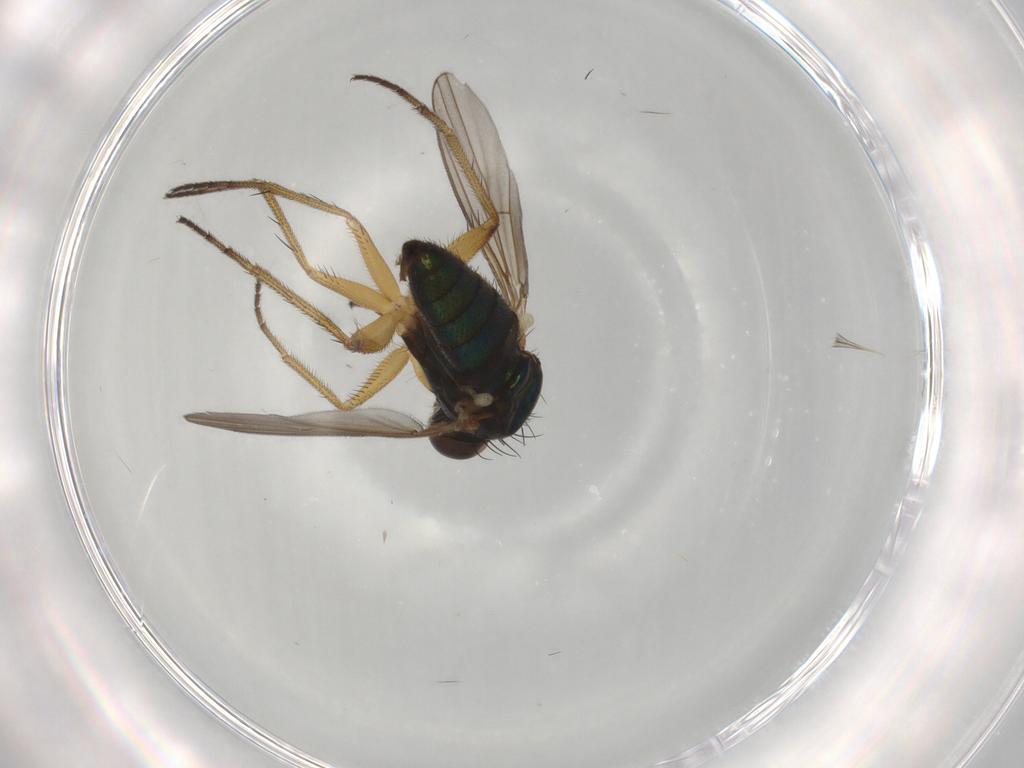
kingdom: Animalia
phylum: Arthropoda
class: Insecta
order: Diptera
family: Dolichopodidae
